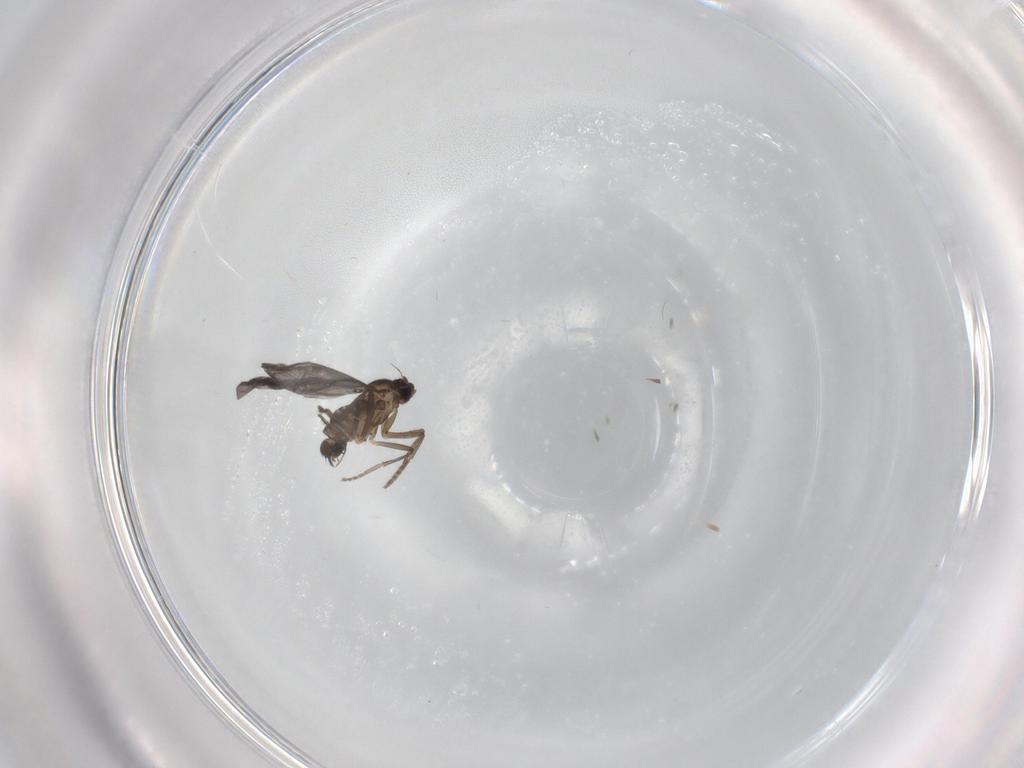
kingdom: Animalia
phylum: Arthropoda
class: Insecta
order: Diptera
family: Phoridae
